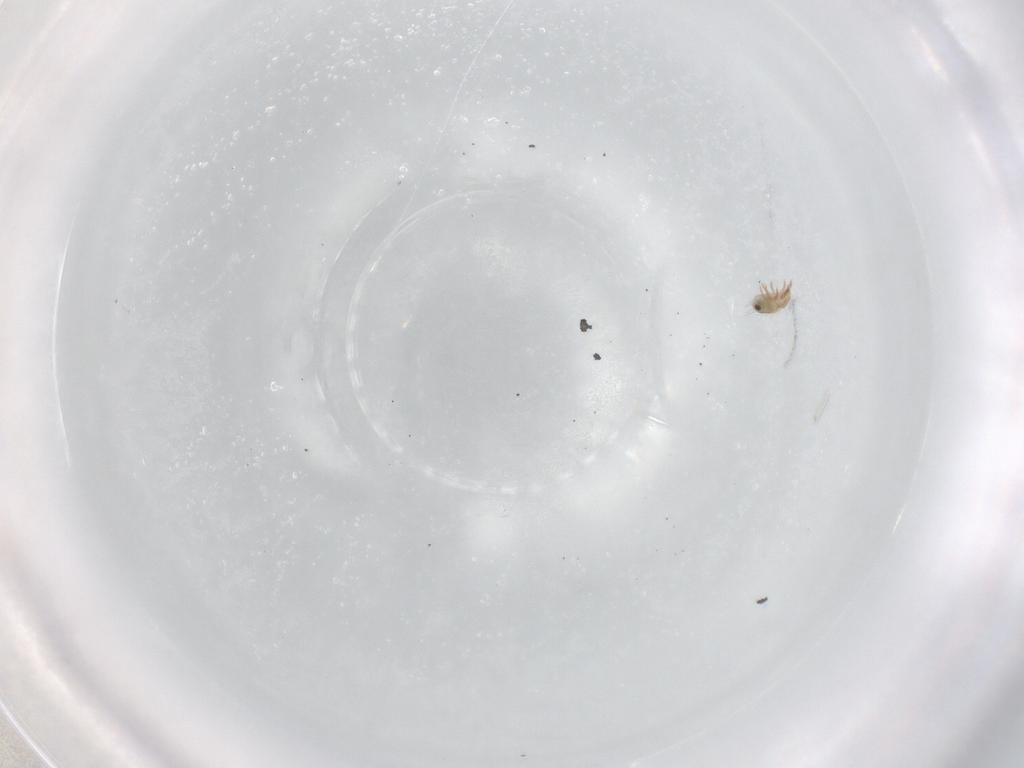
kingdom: Animalia
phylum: Arthropoda
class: Arachnida
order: Sarcoptiformes
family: Humerobatidae
